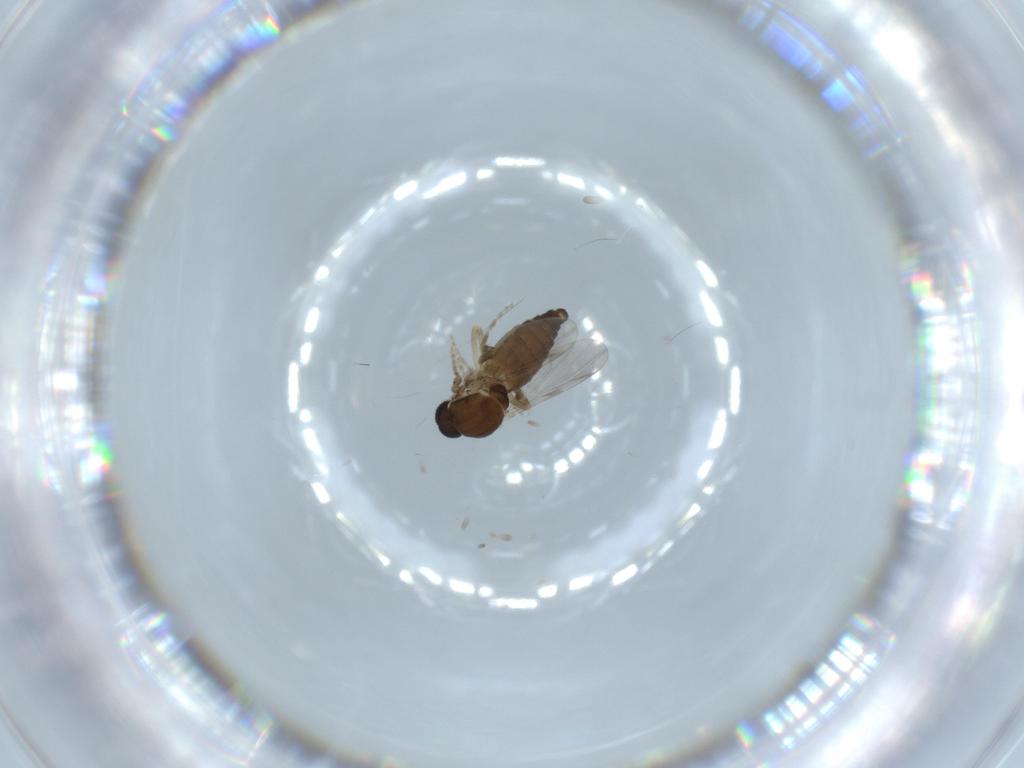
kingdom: Animalia
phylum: Arthropoda
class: Insecta
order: Diptera
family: Ceratopogonidae
